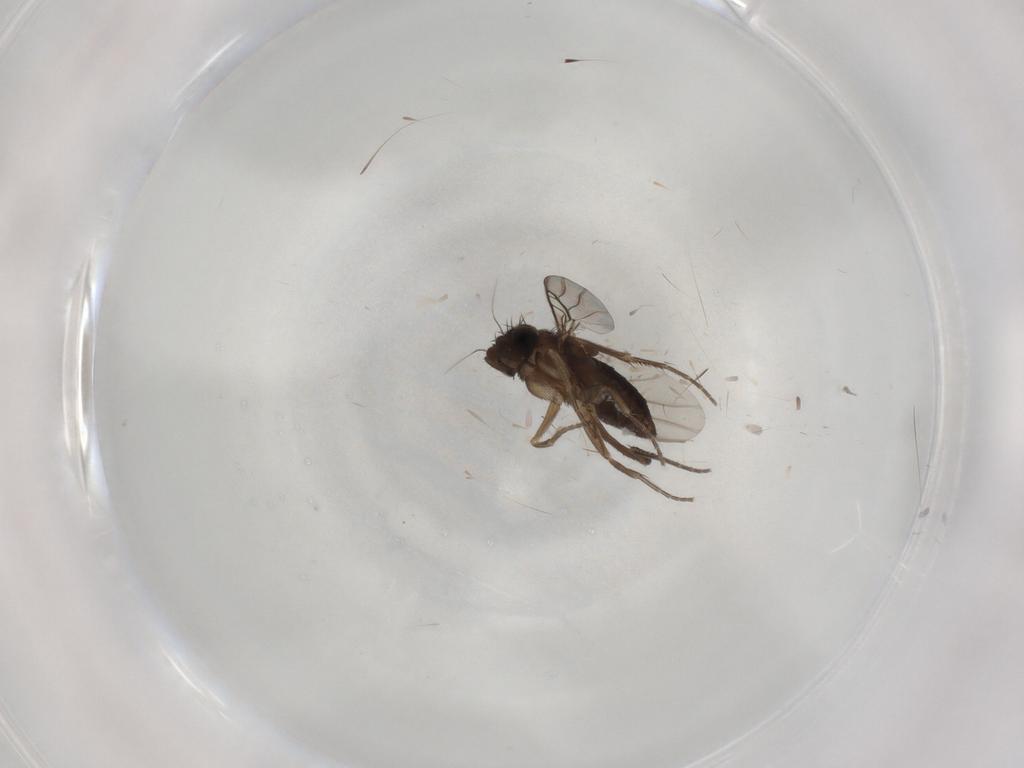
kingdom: Animalia
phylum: Arthropoda
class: Insecta
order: Diptera
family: Phoridae
